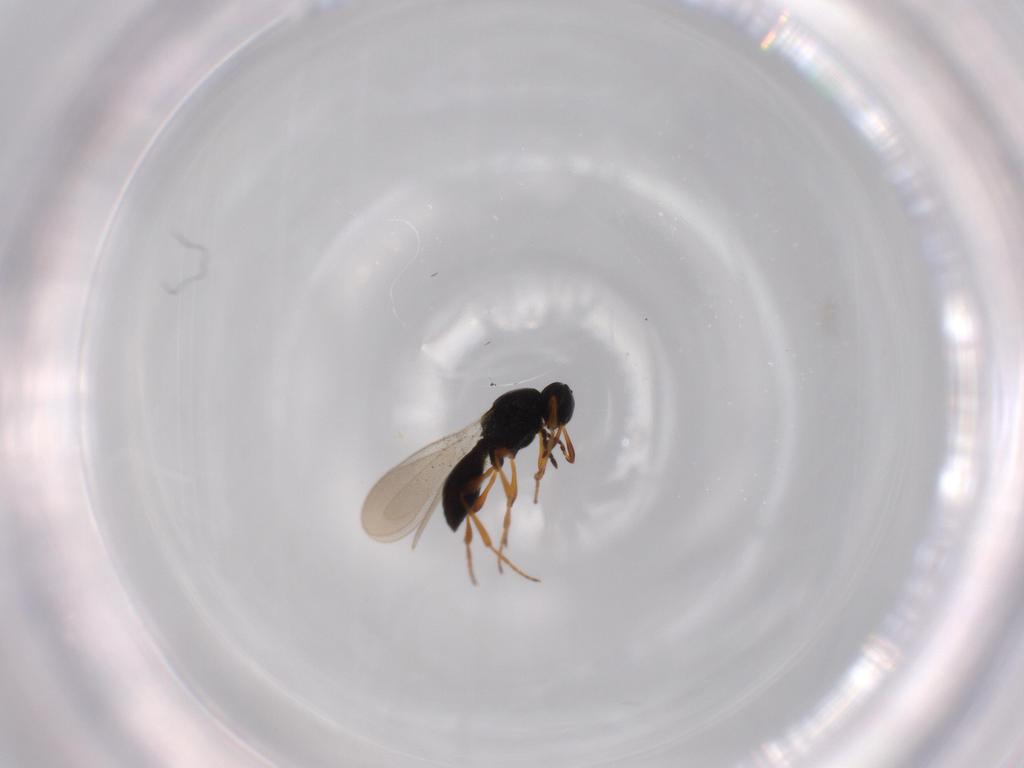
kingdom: Animalia
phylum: Arthropoda
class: Insecta
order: Hymenoptera
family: Platygastridae
